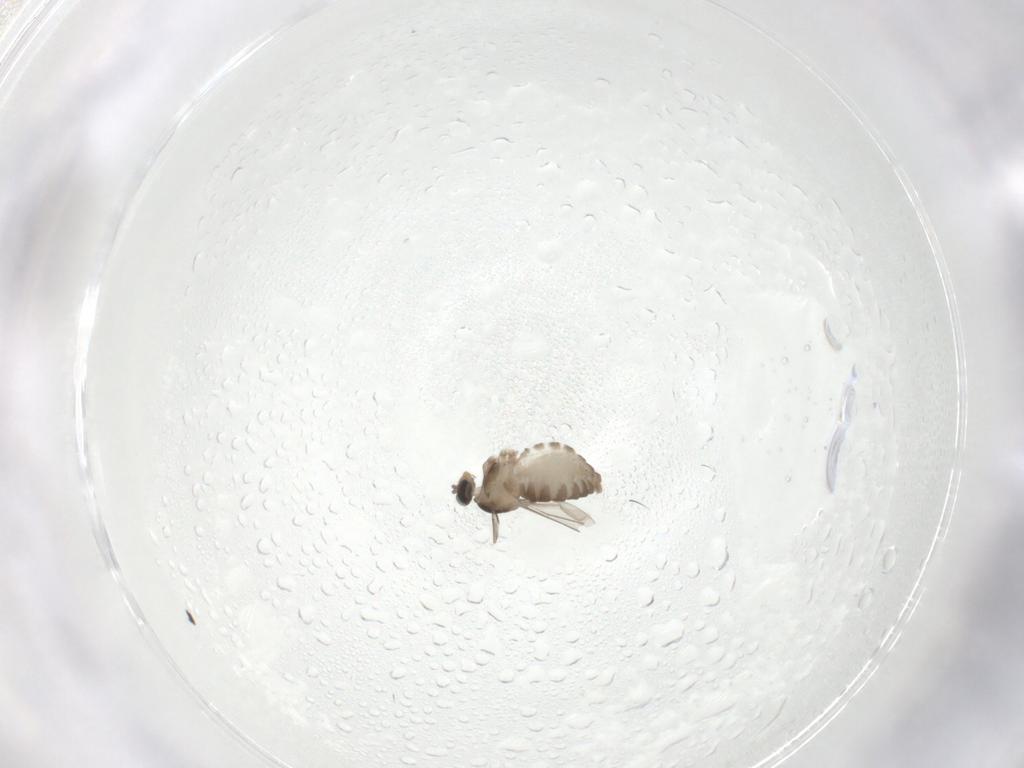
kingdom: Animalia
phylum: Arthropoda
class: Insecta
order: Diptera
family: Cecidomyiidae
